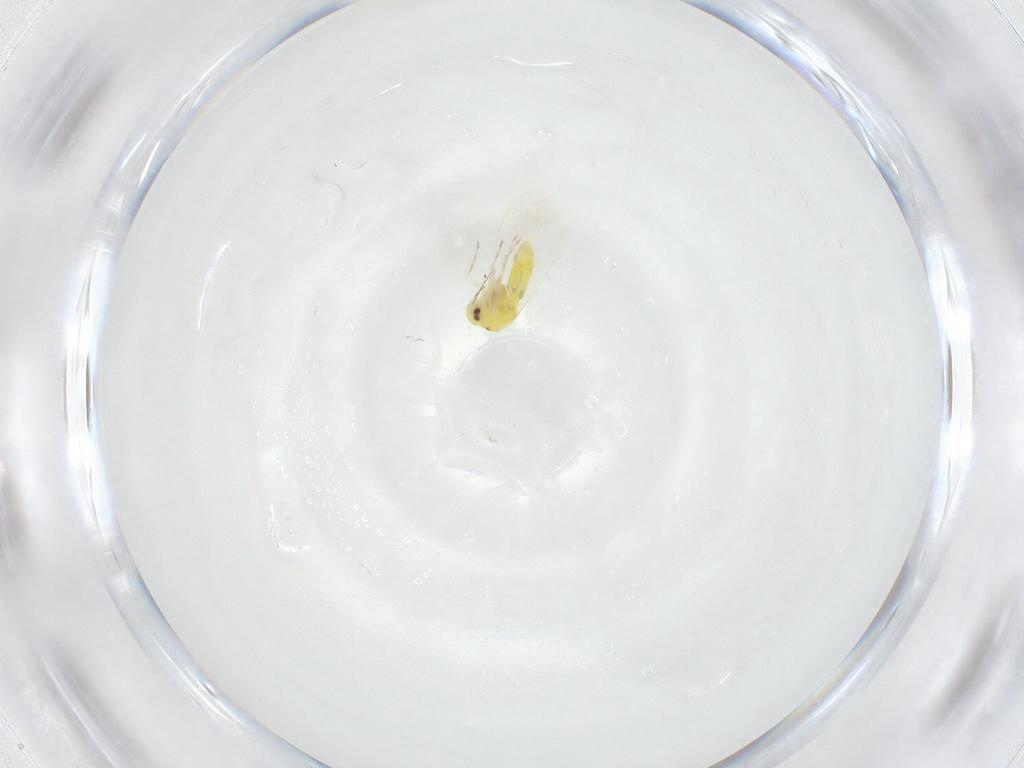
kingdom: Animalia
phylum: Arthropoda
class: Insecta
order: Hemiptera
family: Aleyrodidae
